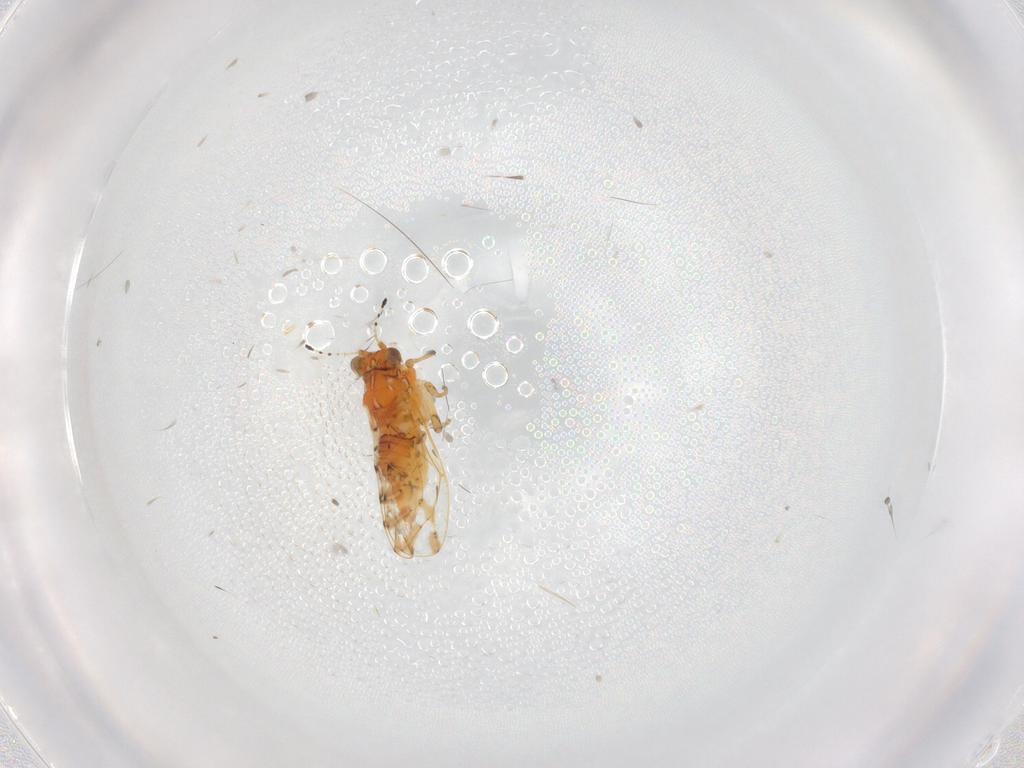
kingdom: Animalia
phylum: Arthropoda
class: Insecta
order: Hemiptera
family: Phacopteronidae
